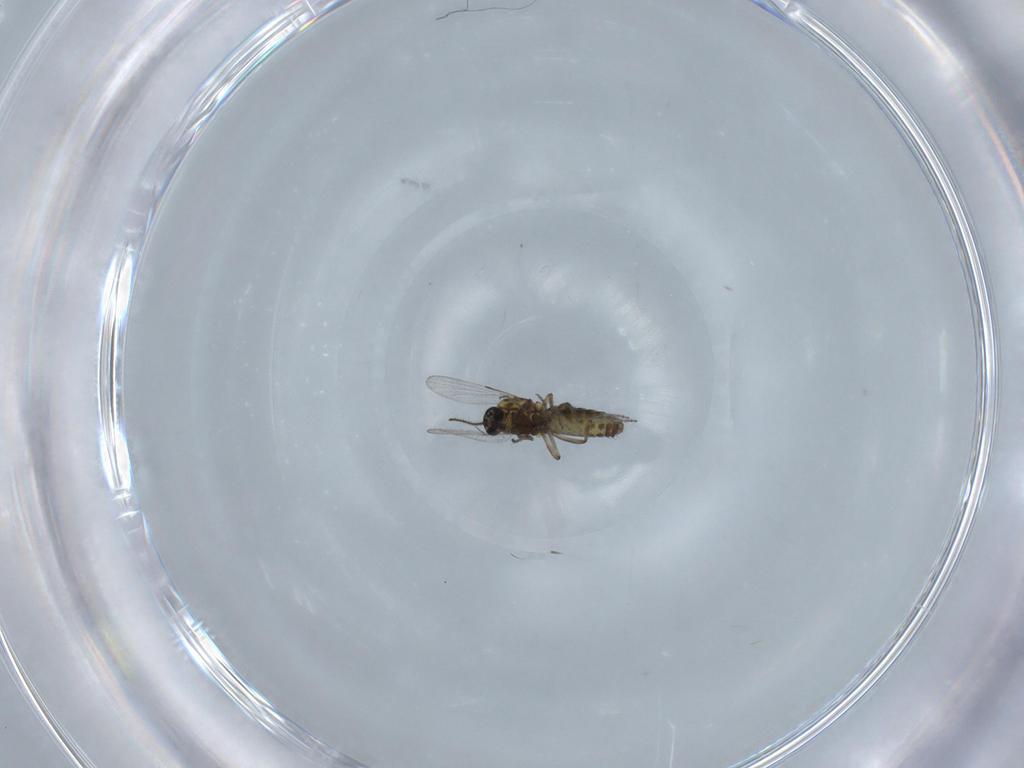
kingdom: Animalia
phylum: Arthropoda
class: Insecta
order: Diptera
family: Ceratopogonidae
